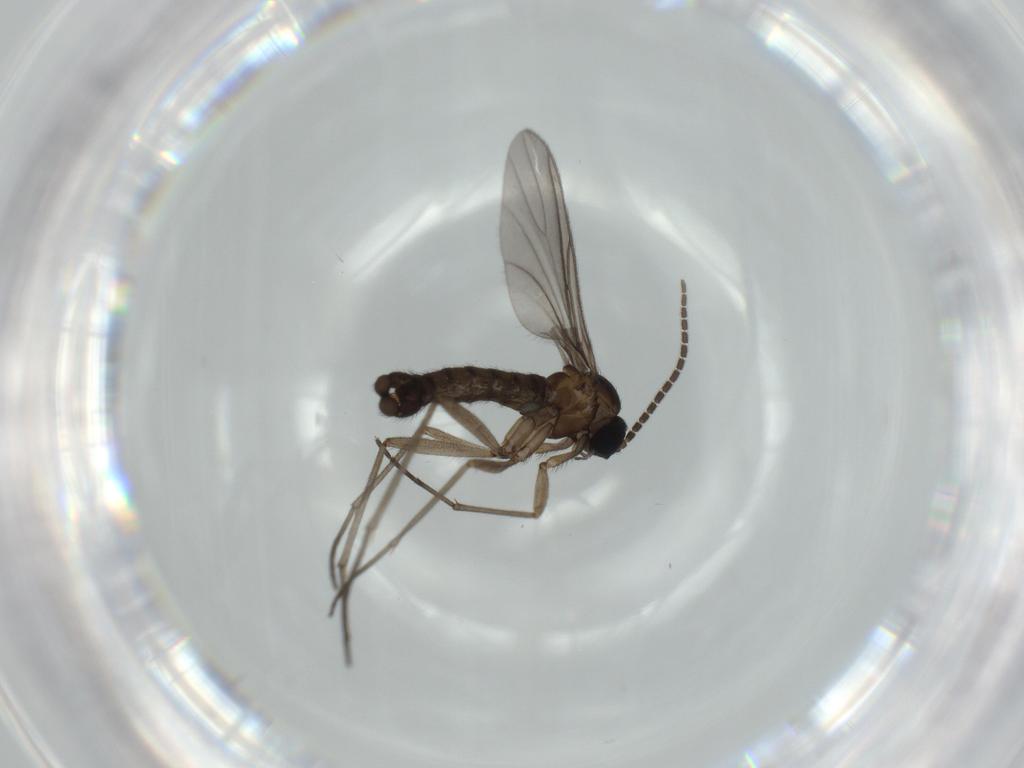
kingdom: Animalia
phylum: Arthropoda
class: Insecta
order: Diptera
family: Sciaridae
